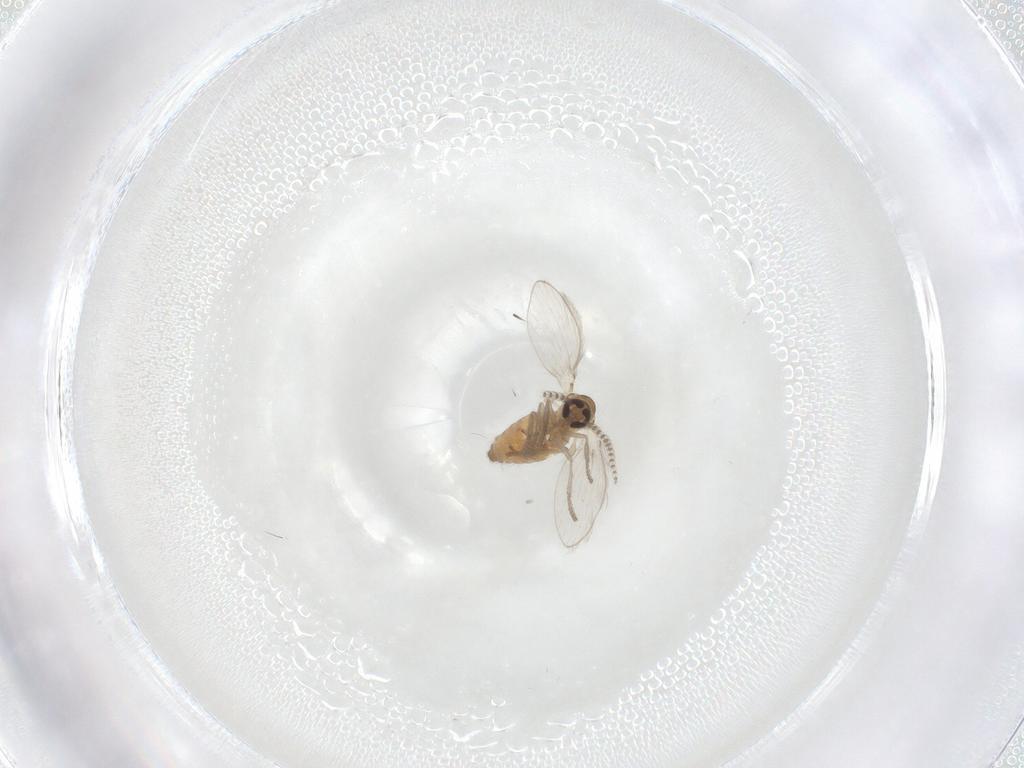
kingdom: Animalia
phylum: Arthropoda
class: Insecta
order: Diptera
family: Psychodidae
